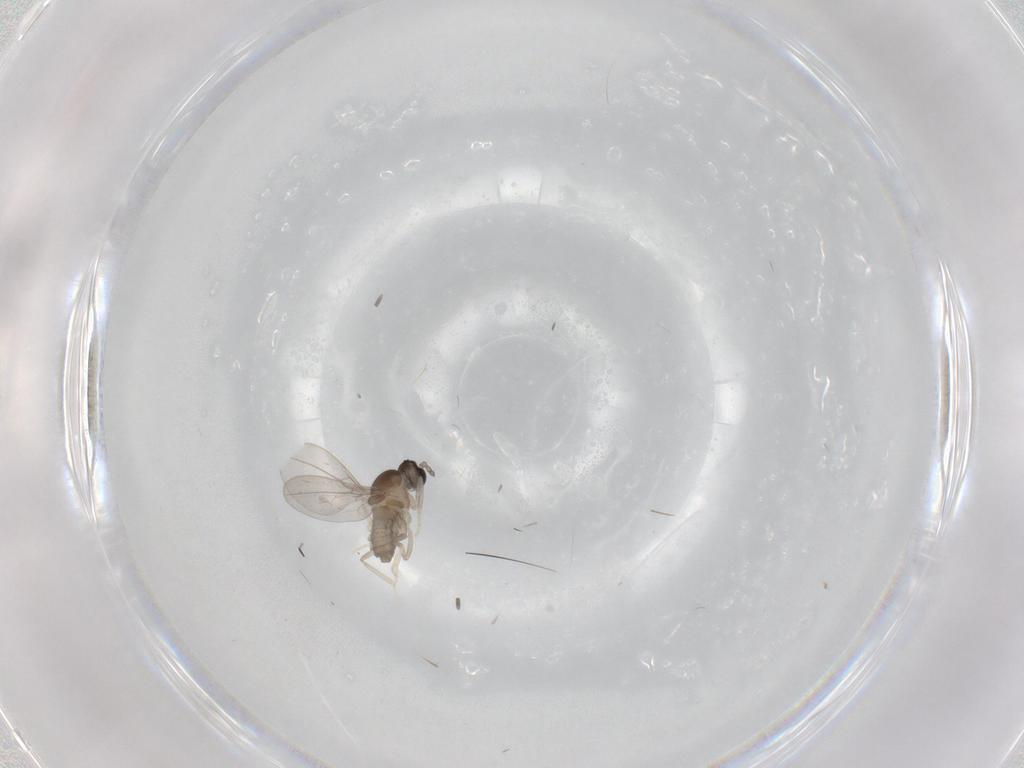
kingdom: Animalia
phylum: Arthropoda
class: Insecta
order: Diptera
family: Cecidomyiidae
